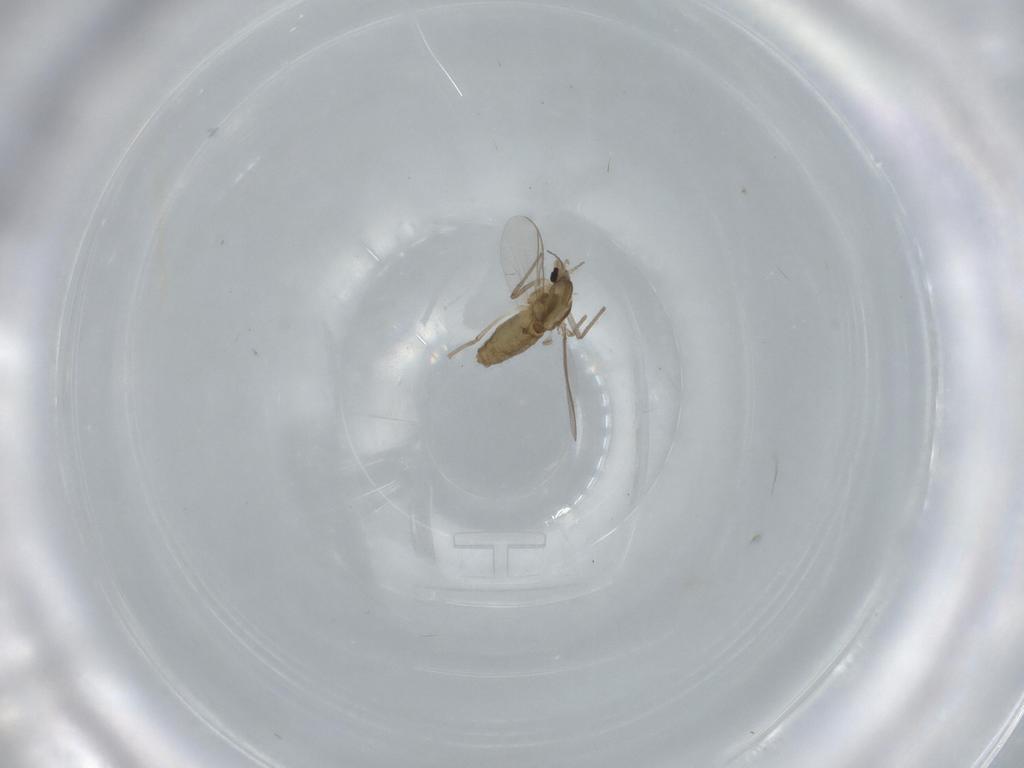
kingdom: Animalia
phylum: Arthropoda
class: Insecta
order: Diptera
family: Chironomidae
